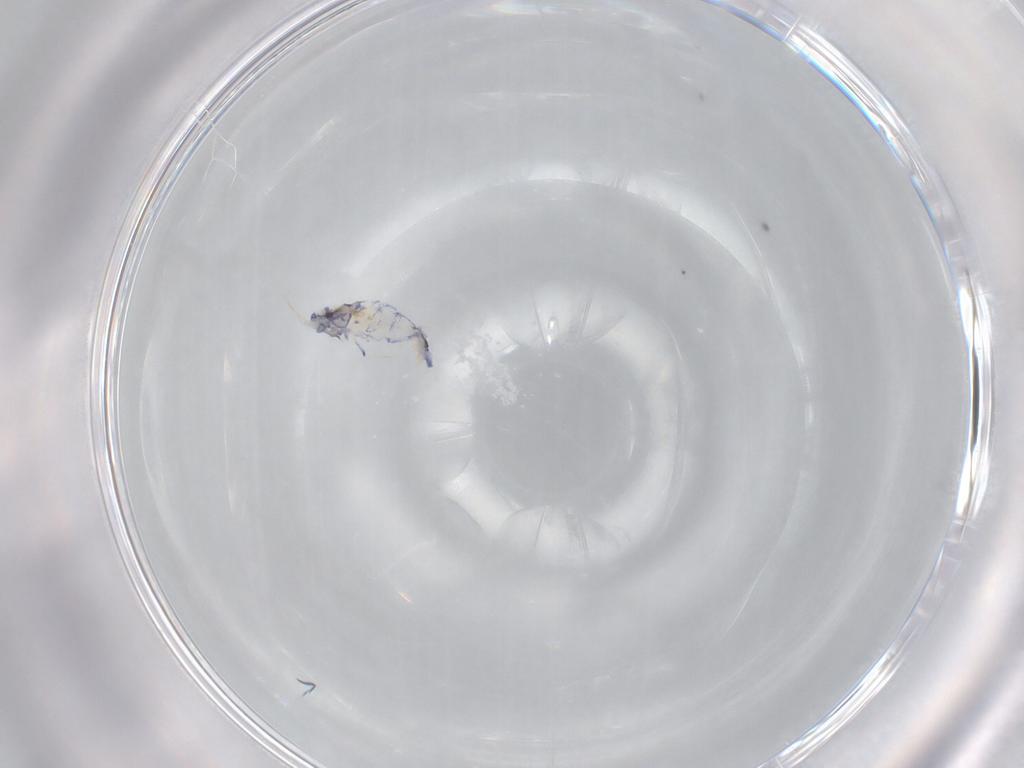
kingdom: Animalia
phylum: Arthropoda
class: Collembola
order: Entomobryomorpha
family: Entomobryidae
